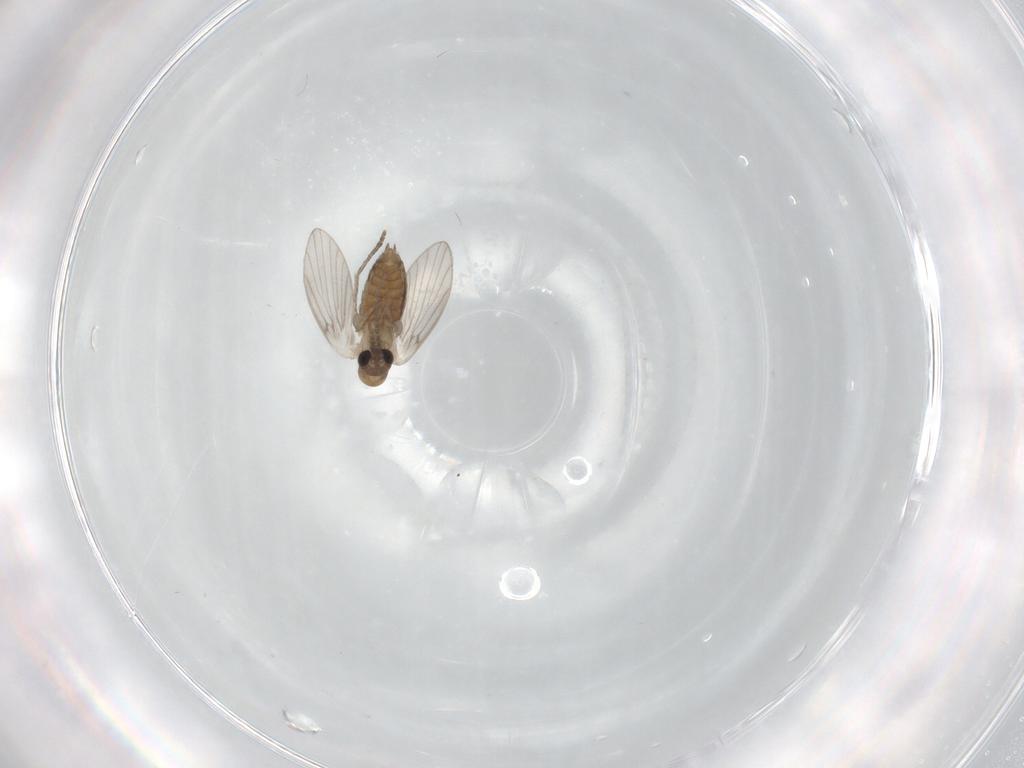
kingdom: Animalia
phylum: Arthropoda
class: Insecta
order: Diptera
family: Psychodidae
